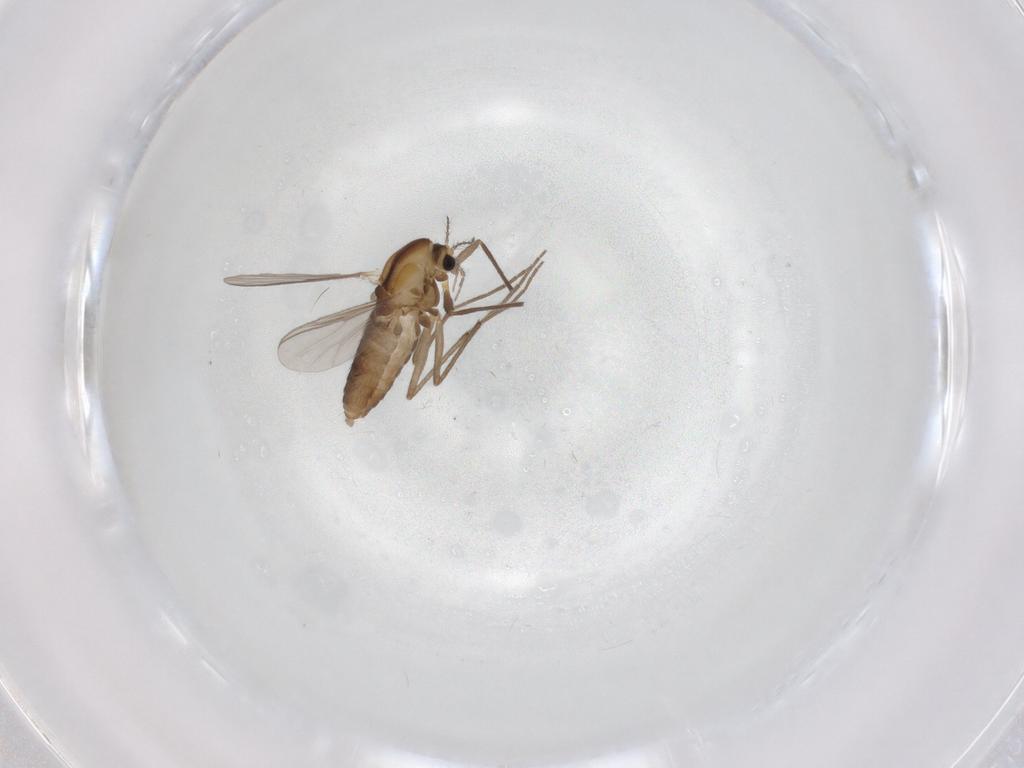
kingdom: Animalia
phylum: Arthropoda
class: Insecta
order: Diptera
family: Chironomidae
